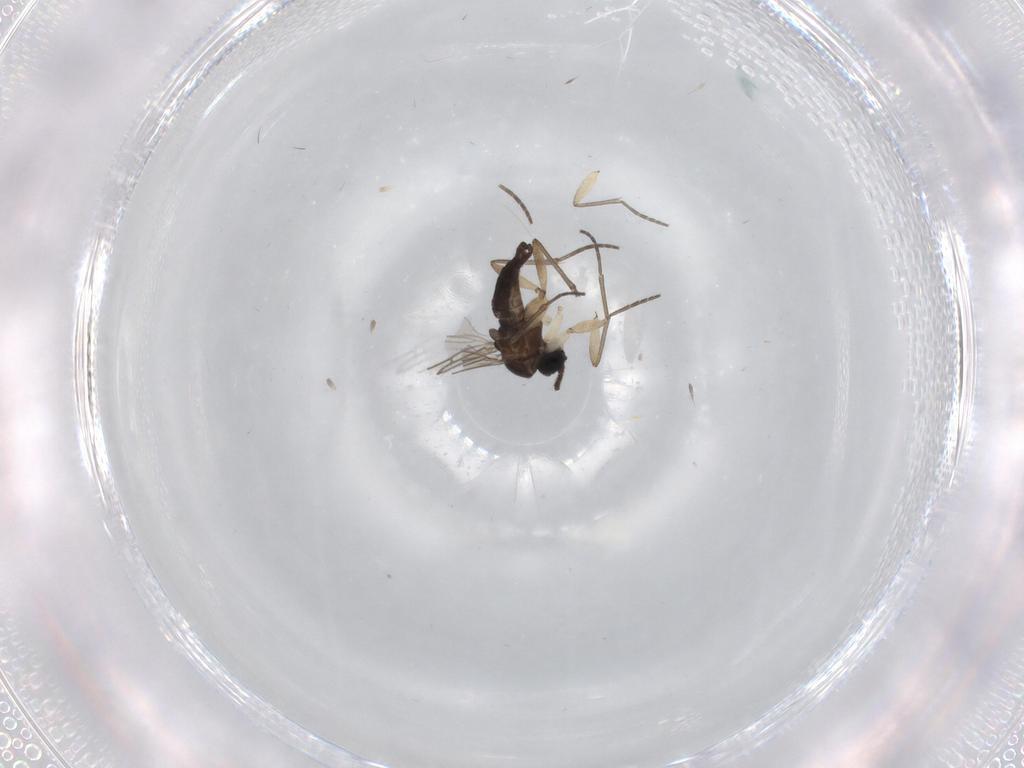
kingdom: Animalia
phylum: Arthropoda
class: Insecta
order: Diptera
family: Sciaridae
